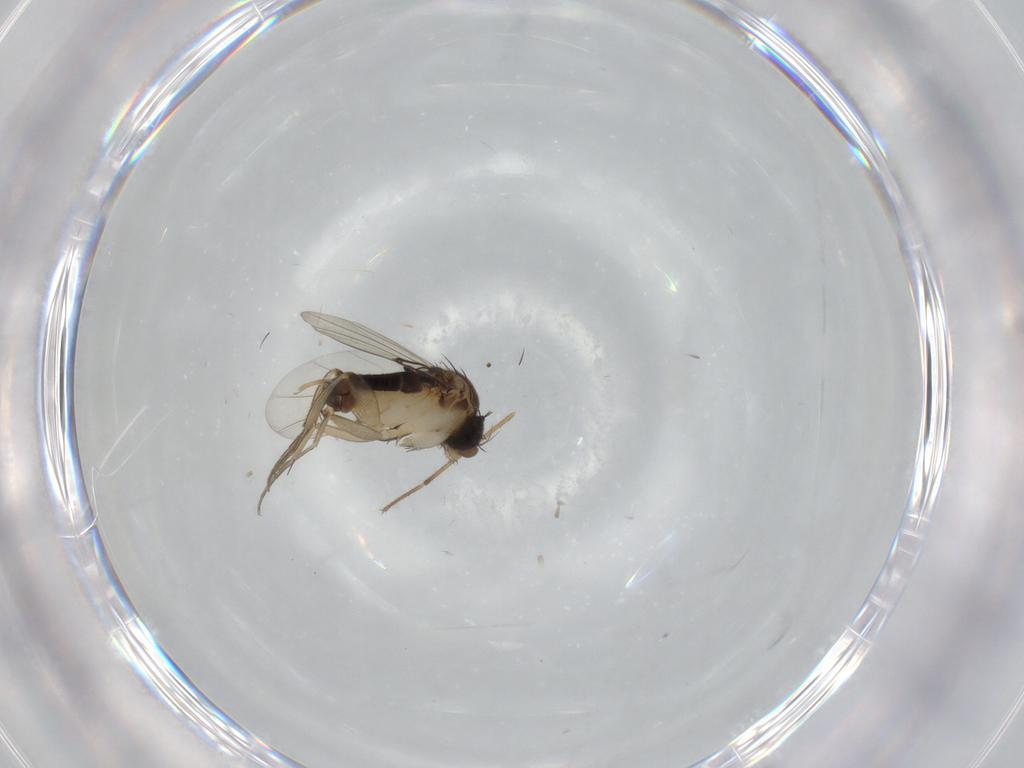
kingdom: Animalia
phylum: Arthropoda
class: Insecta
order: Diptera
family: Phoridae
